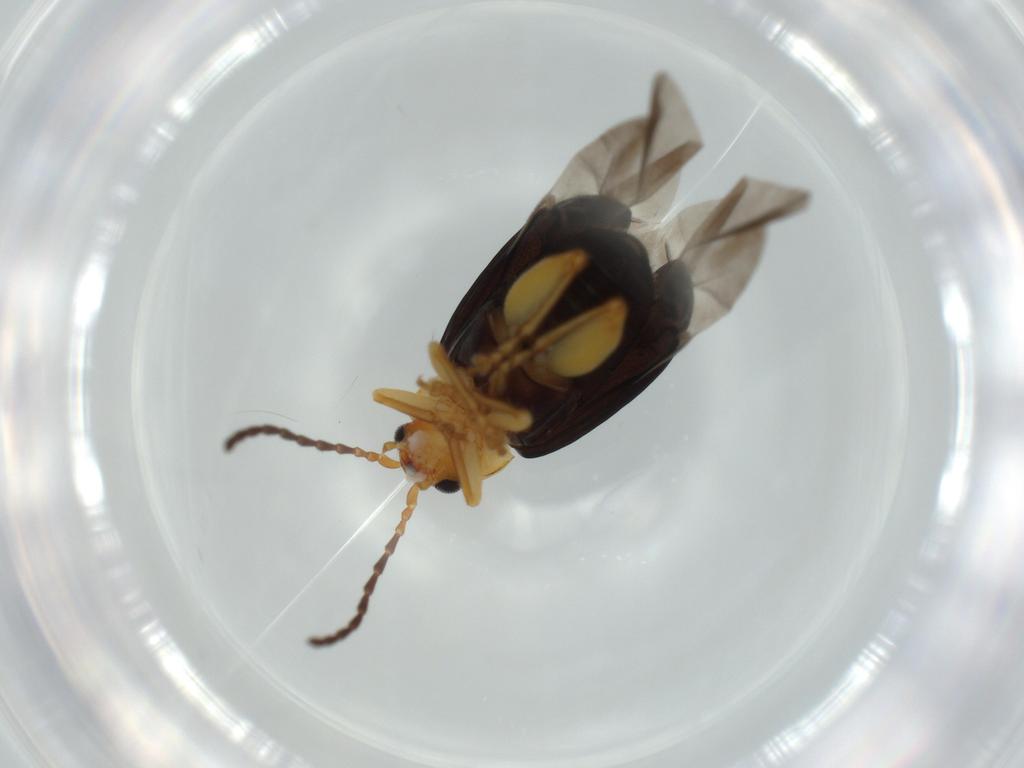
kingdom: Animalia
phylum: Arthropoda
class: Insecta
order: Coleoptera
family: Chrysomelidae
